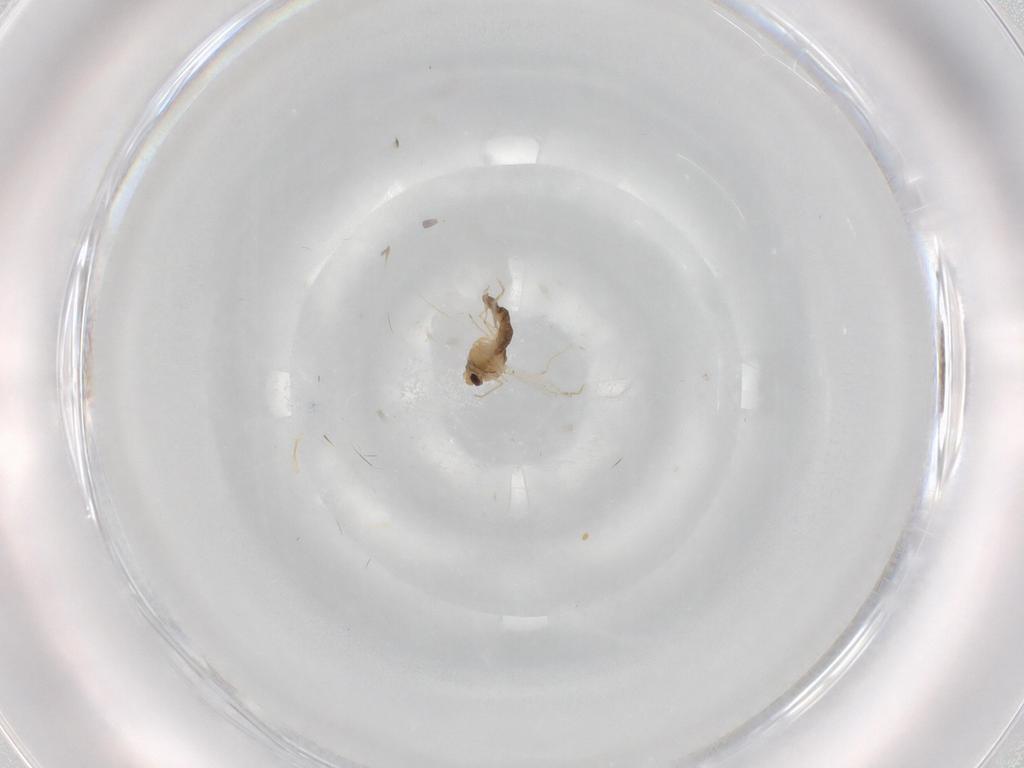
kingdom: Animalia
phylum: Arthropoda
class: Insecta
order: Diptera
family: Chironomidae
